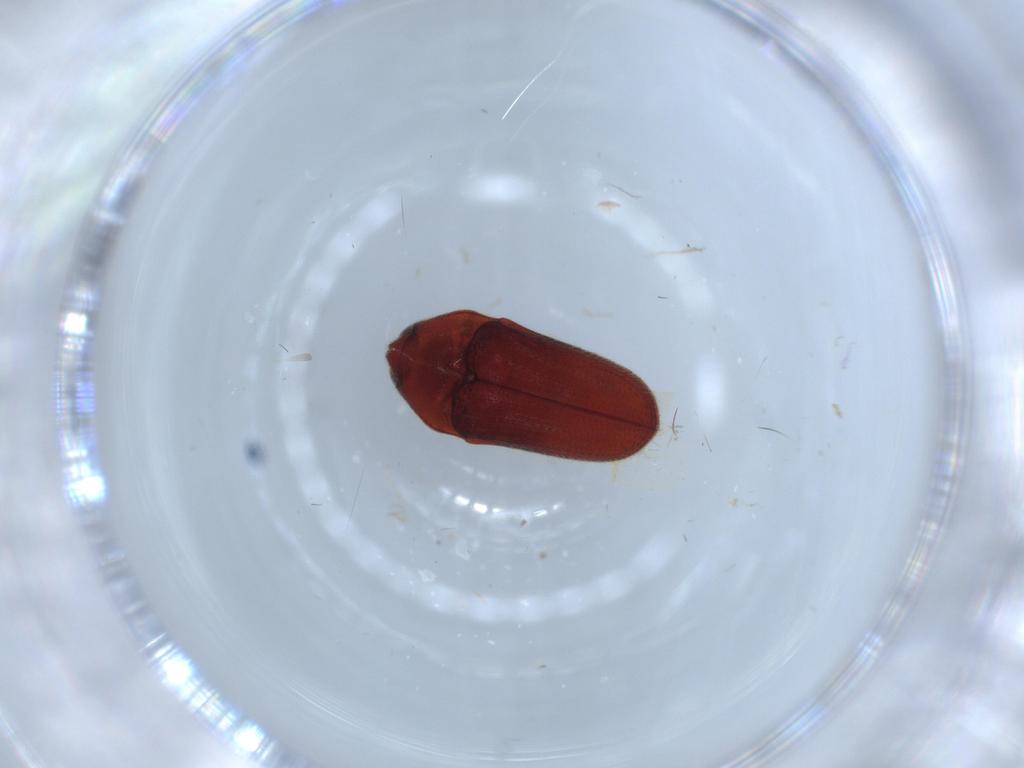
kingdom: Animalia
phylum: Arthropoda
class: Insecta
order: Coleoptera
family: Throscidae
